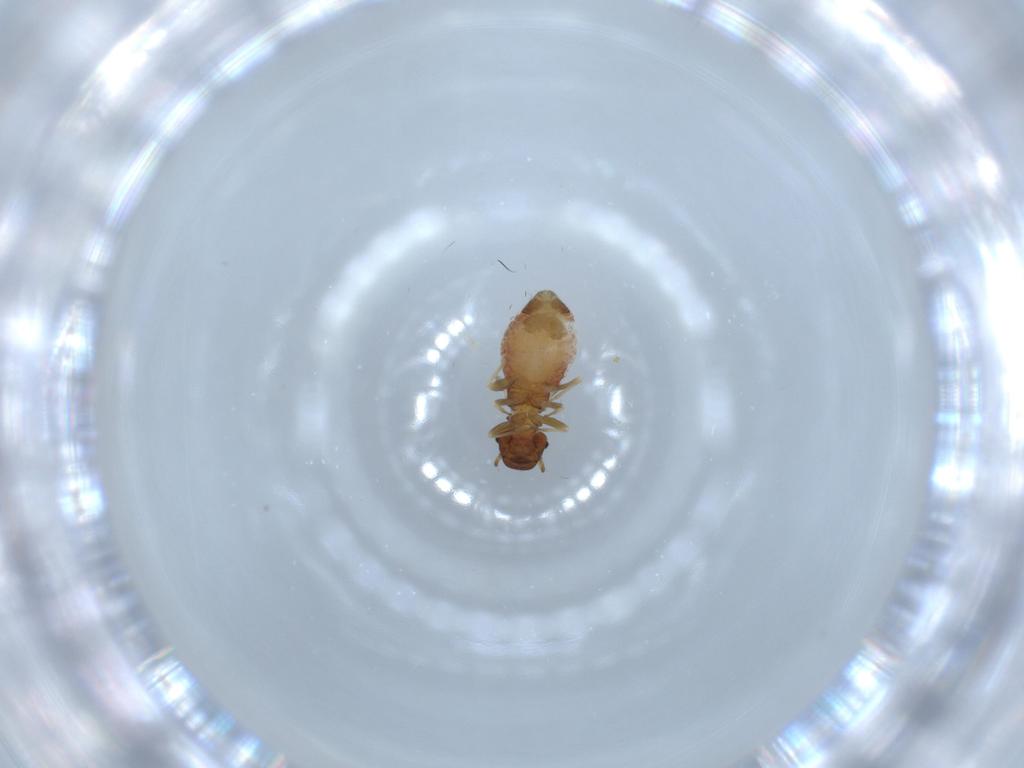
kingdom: Animalia
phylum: Arthropoda
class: Insecta
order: Psocodea
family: Archipsocidae
